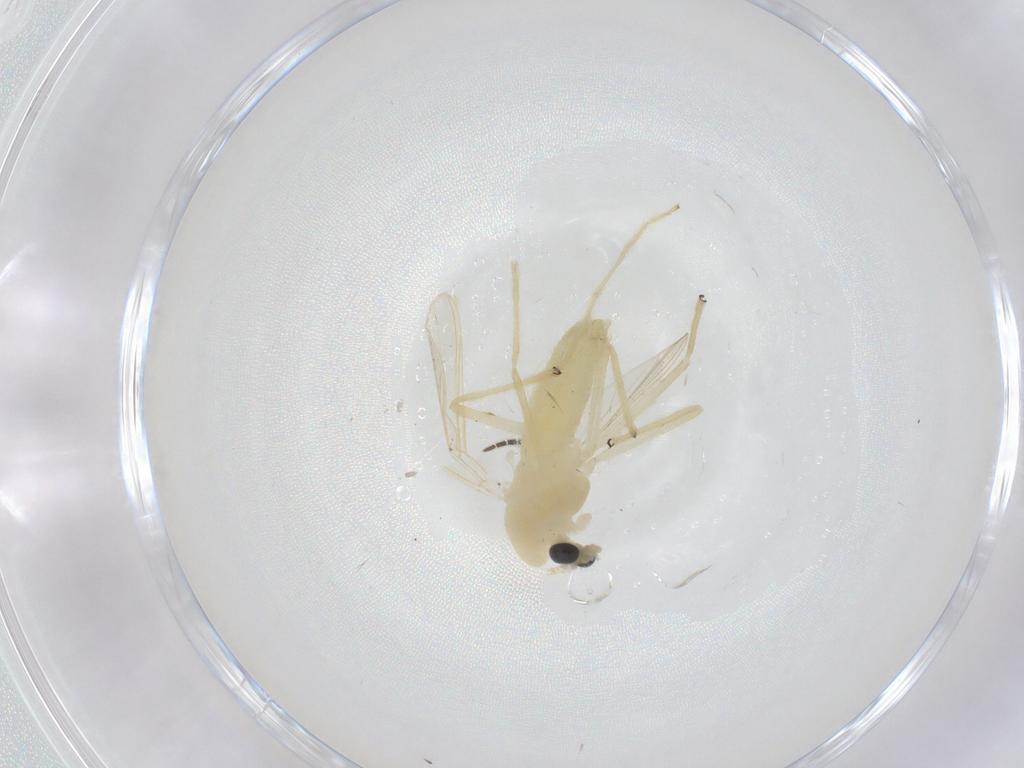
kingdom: Animalia
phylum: Arthropoda
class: Insecta
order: Diptera
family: Chironomidae
